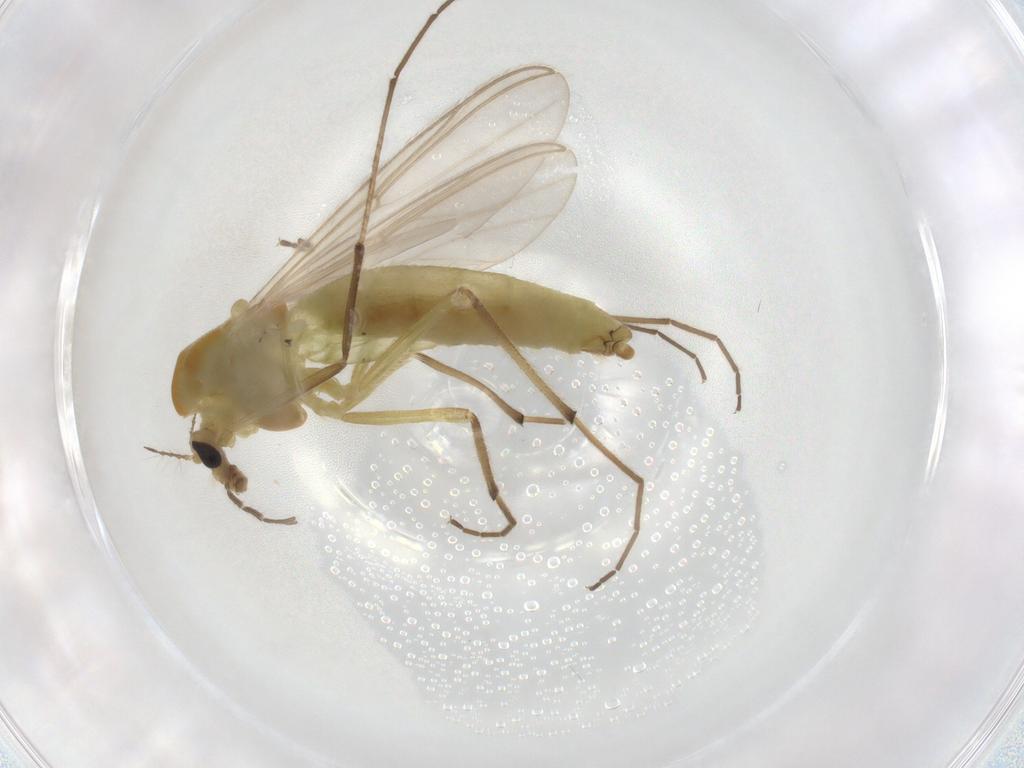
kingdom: Animalia
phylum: Arthropoda
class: Insecta
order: Diptera
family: Chironomidae
